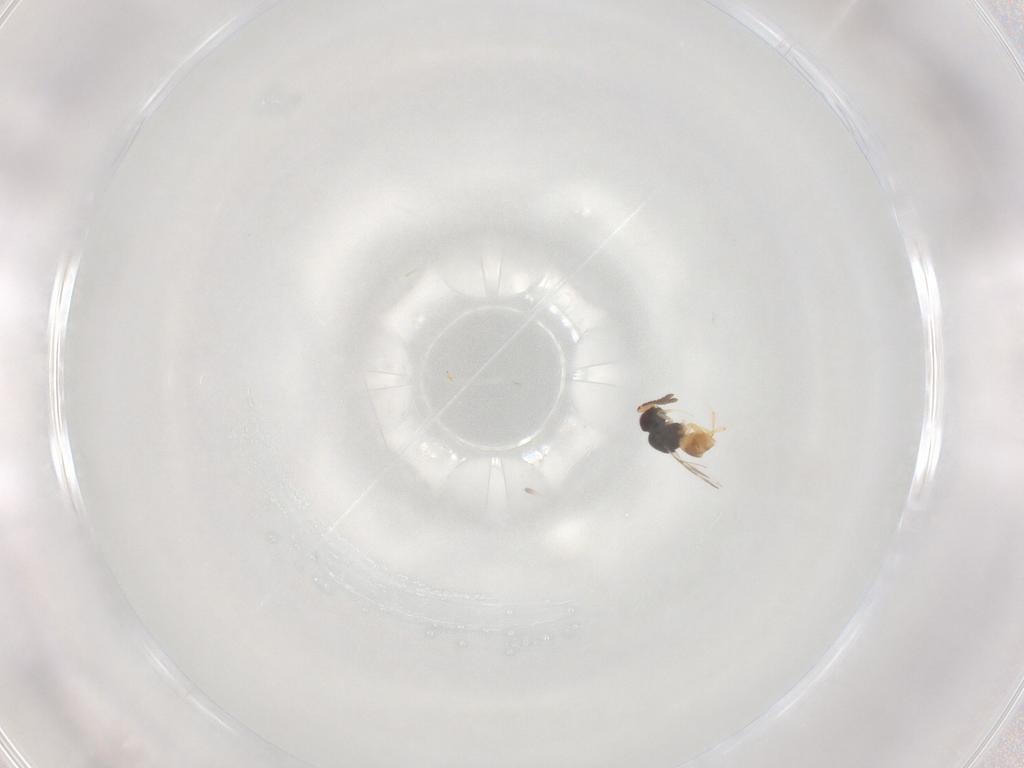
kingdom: Animalia
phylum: Arthropoda
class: Insecta
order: Hymenoptera
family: Ceraphronidae
